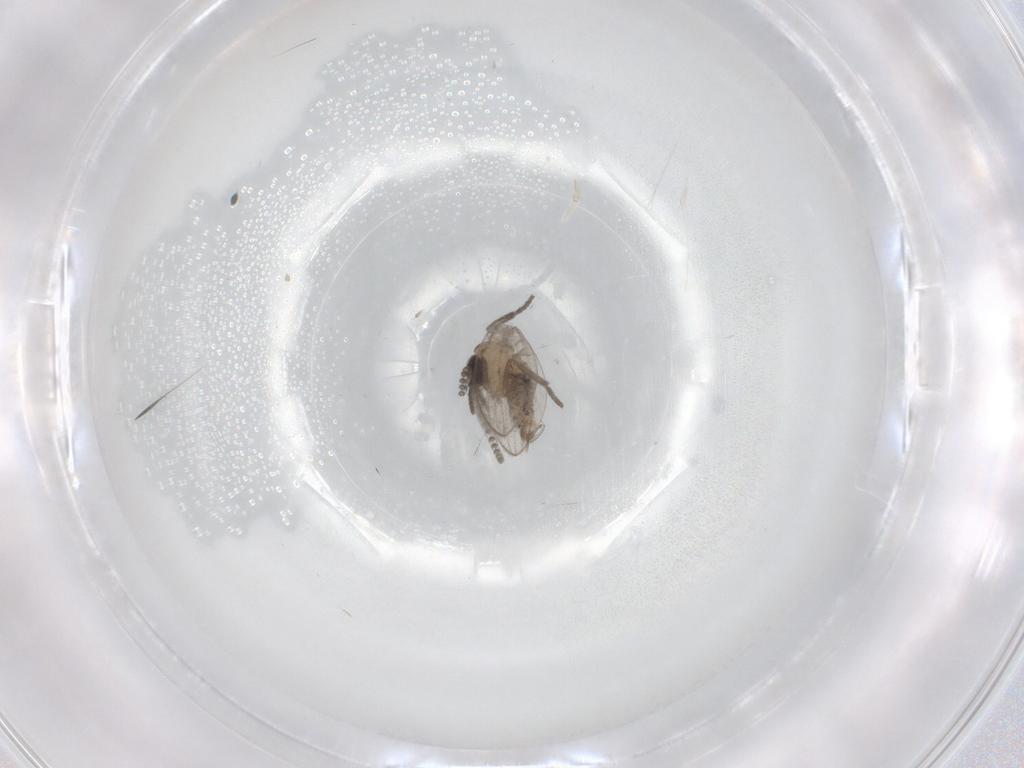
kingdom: Animalia
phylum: Arthropoda
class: Insecta
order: Diptera
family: Psychodidae
